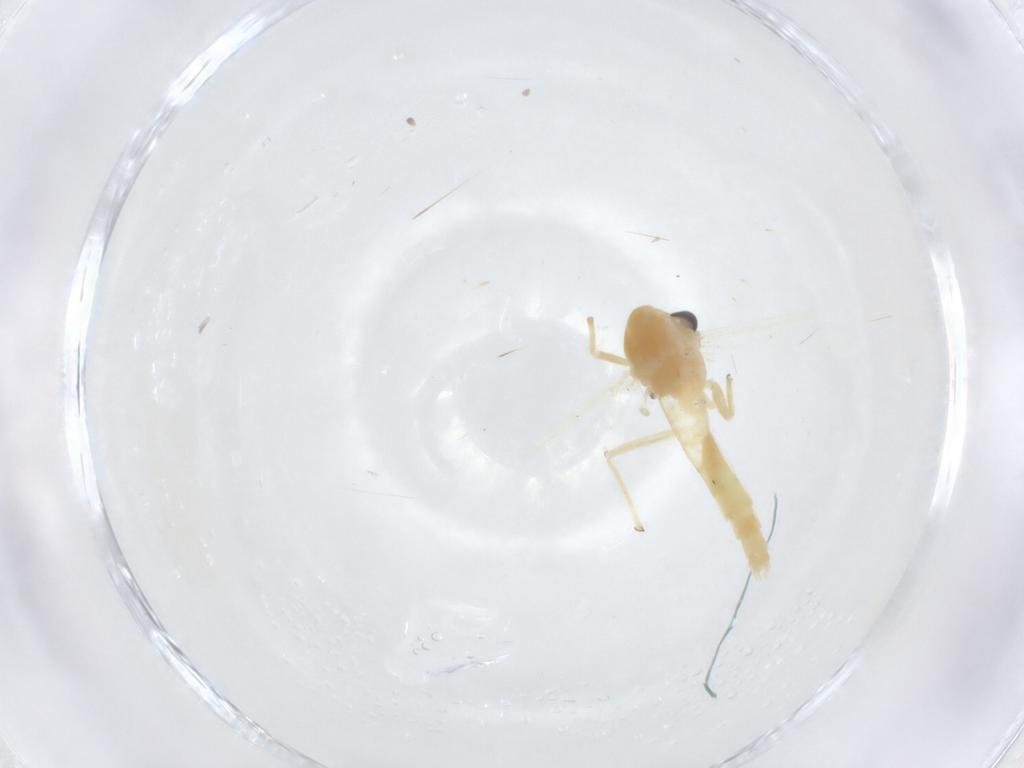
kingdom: Animalia
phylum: Arthropoda
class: Insecta
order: Diptera
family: Chironomidae
